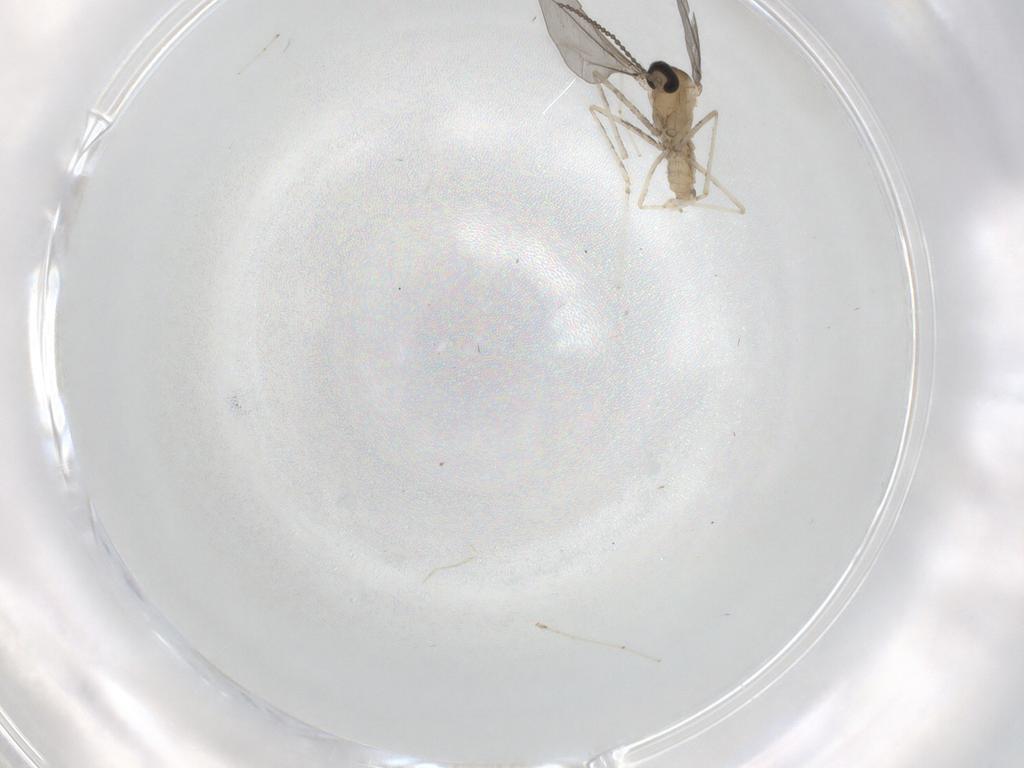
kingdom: Animalia
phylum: Arthropoda
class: Insecta
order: Diptera
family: Cecidomyiidae
